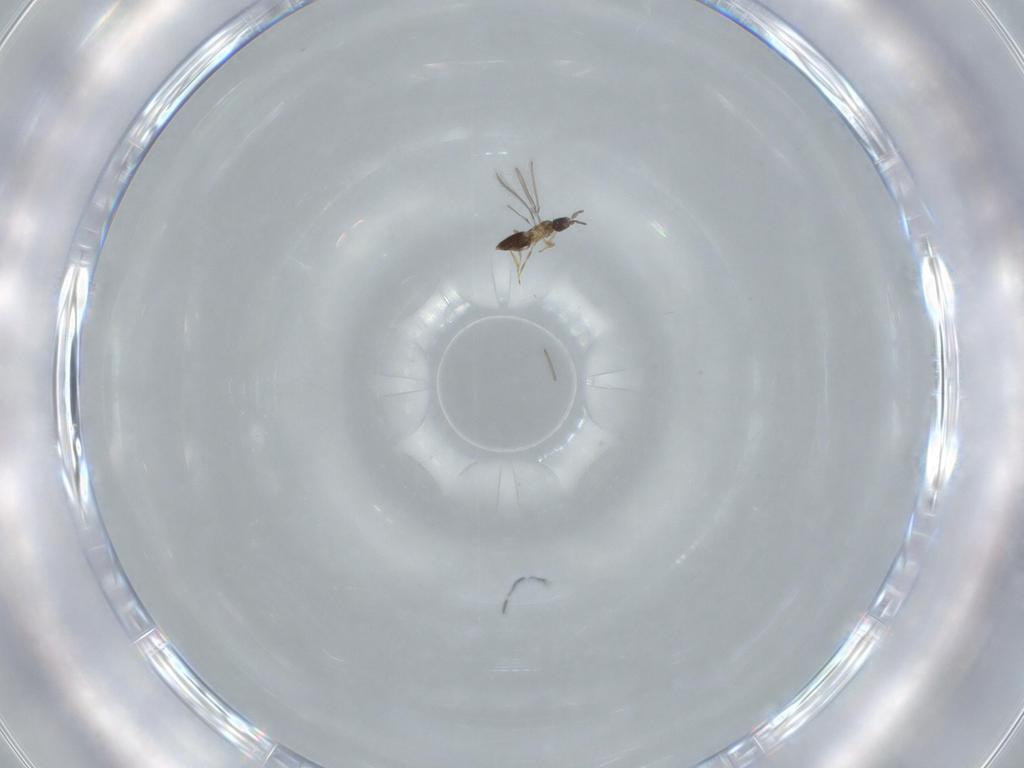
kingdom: Animalia
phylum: Arthropoda
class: Insecta
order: Hymenoptera
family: Mymaridae
